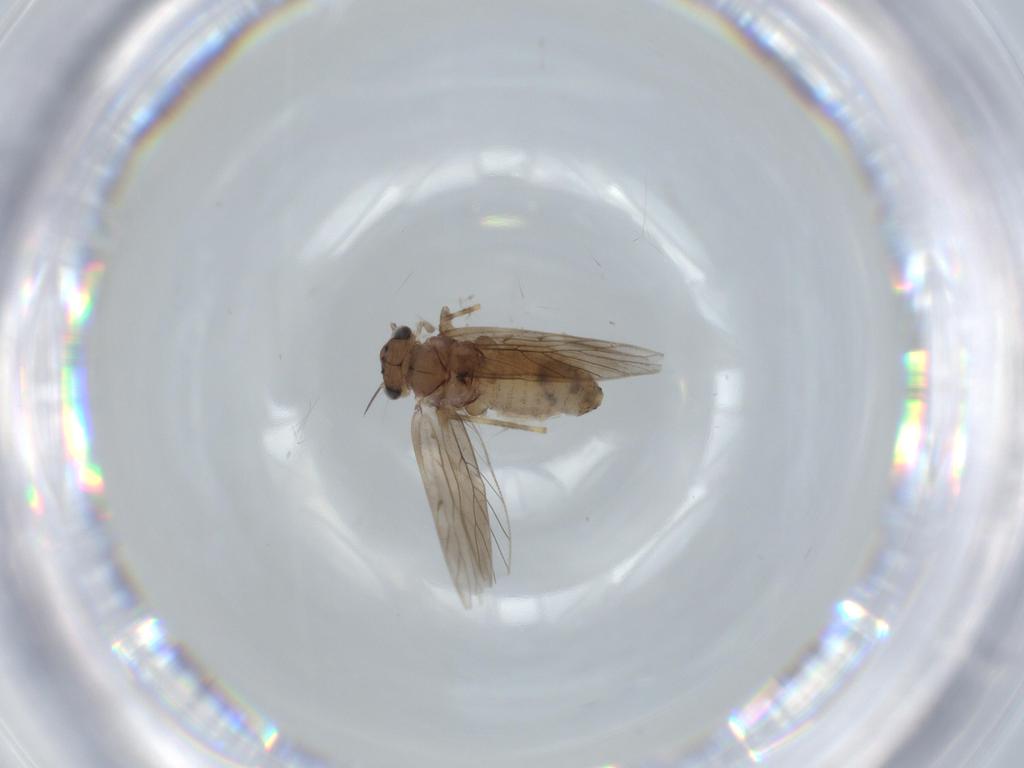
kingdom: Animalia
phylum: Arthropoda
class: Insecta
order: Psocodea
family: Lepidopsocidae
